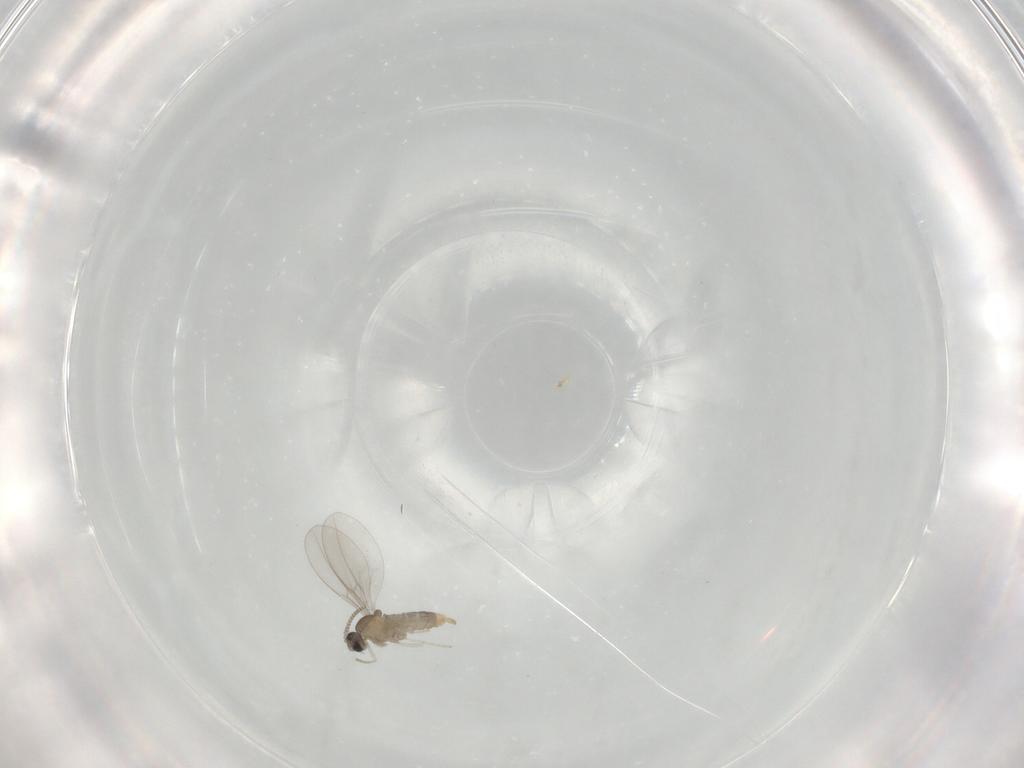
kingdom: Animalia
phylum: Arthropoda
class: Insecta
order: Diptera
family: Cecidomyiidae
